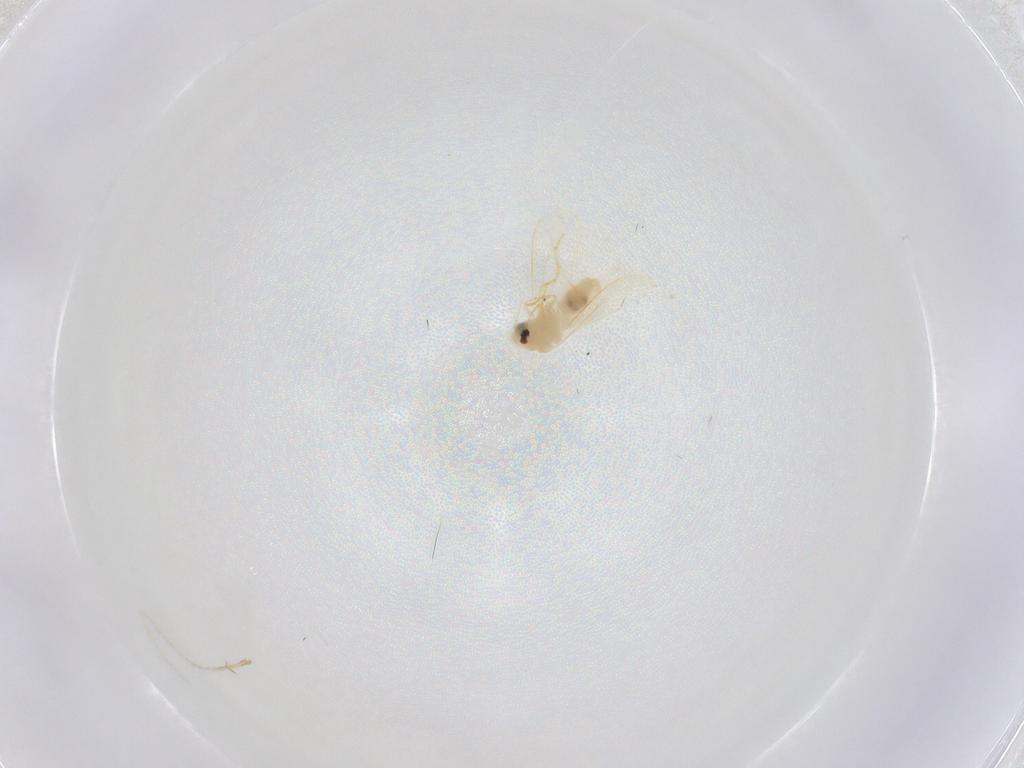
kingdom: Animalia
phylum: Arthropoda
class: Insecta
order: Hemiptera
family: Aleyrodidae
